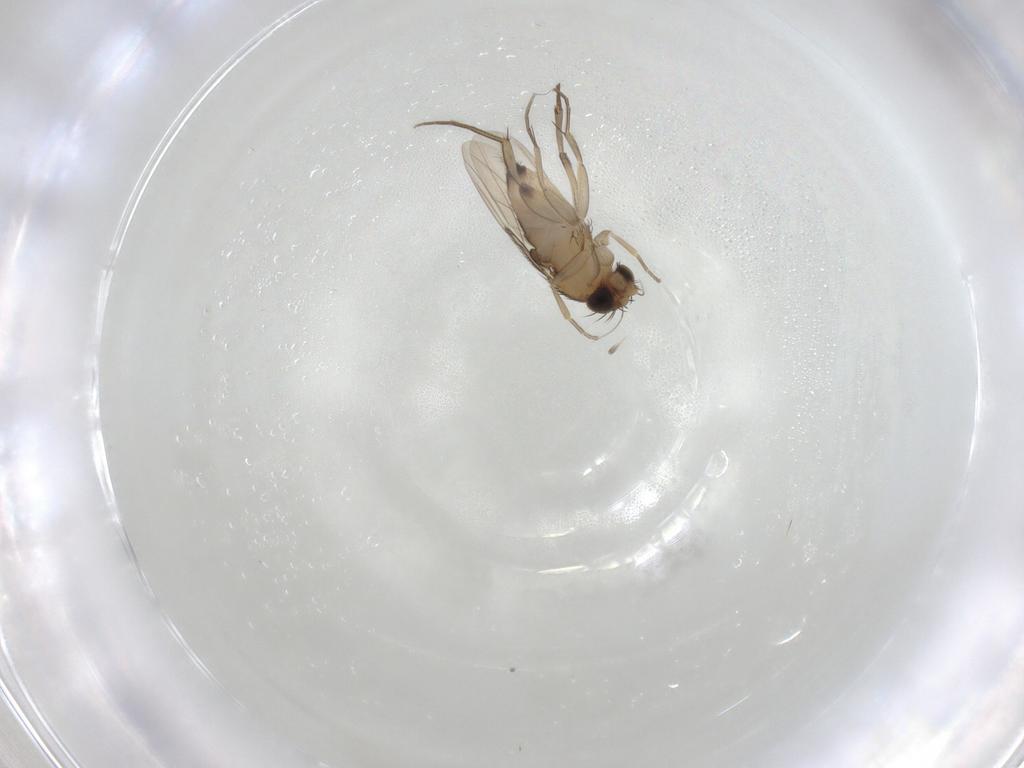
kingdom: Animalia
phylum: Arthropoda
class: Insecta
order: Diptera
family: Phoridae
